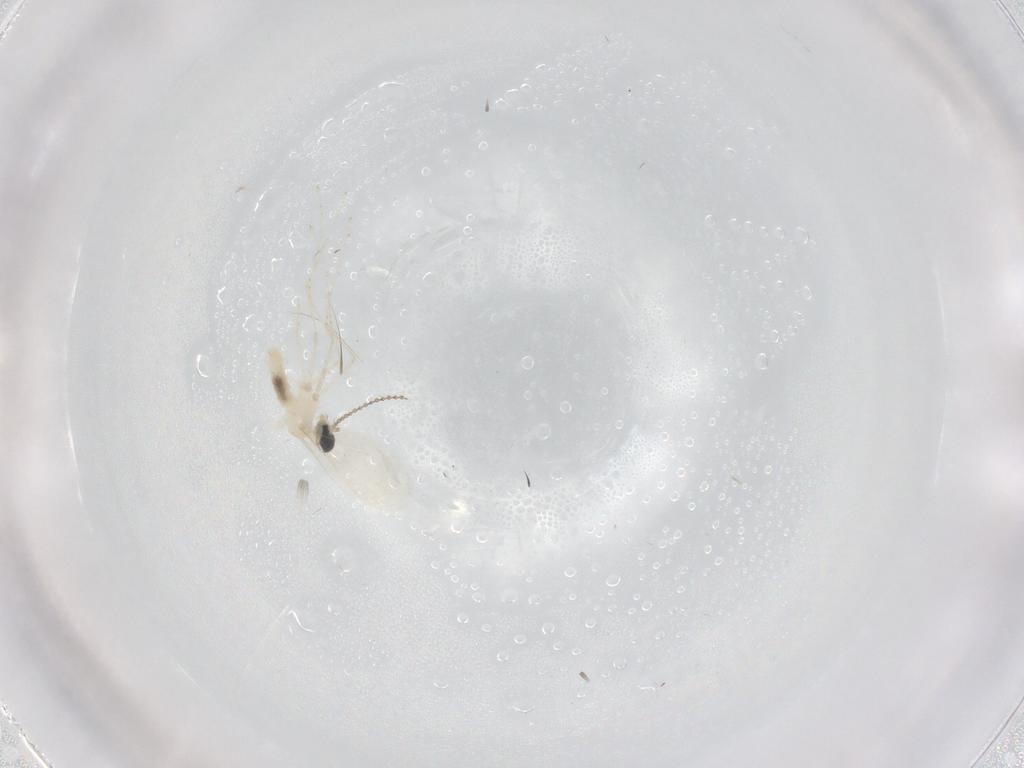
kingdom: Animalia
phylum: Arthropoda
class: Insecta
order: Diptera
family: Cecidomyiidae
